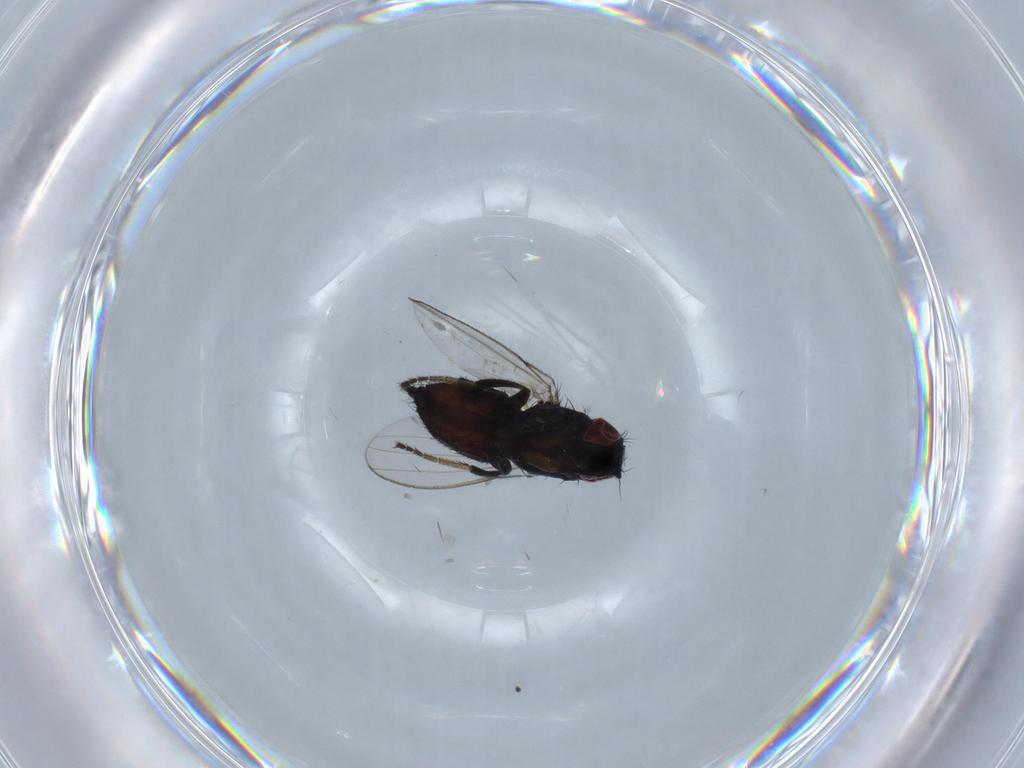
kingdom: Animalia
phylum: Arthropoda
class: Insecta
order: Diptera
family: Milichiidae
